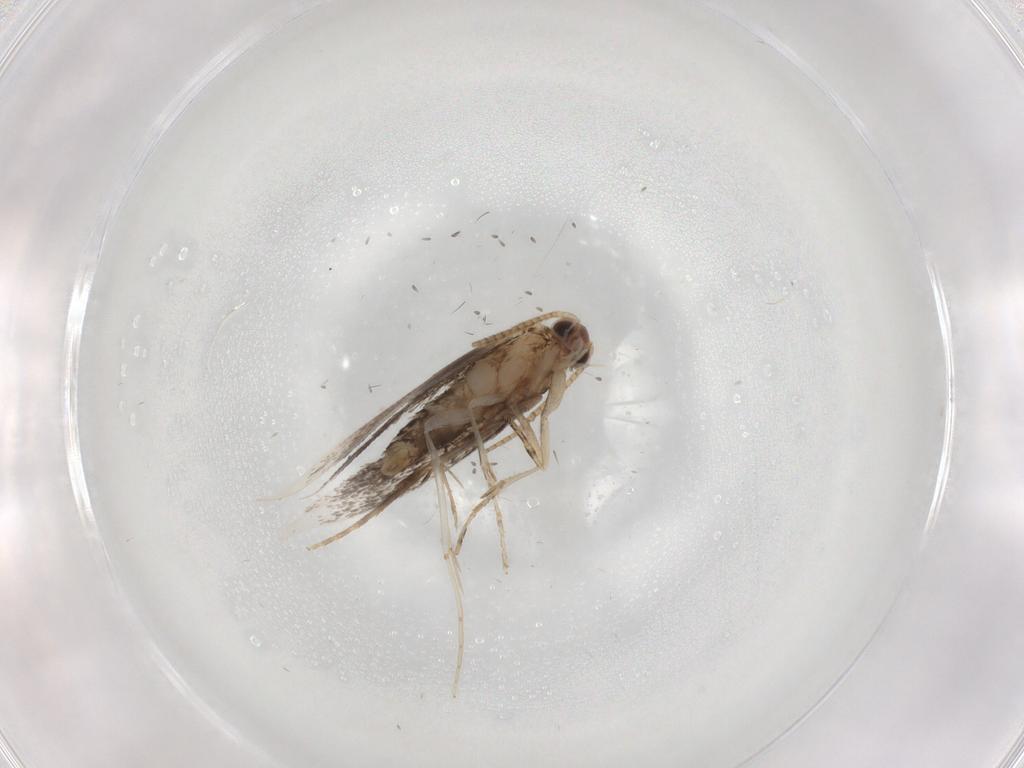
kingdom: Animalia
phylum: Arthropoda
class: Insecta
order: Lepidoptera
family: Tineidae
